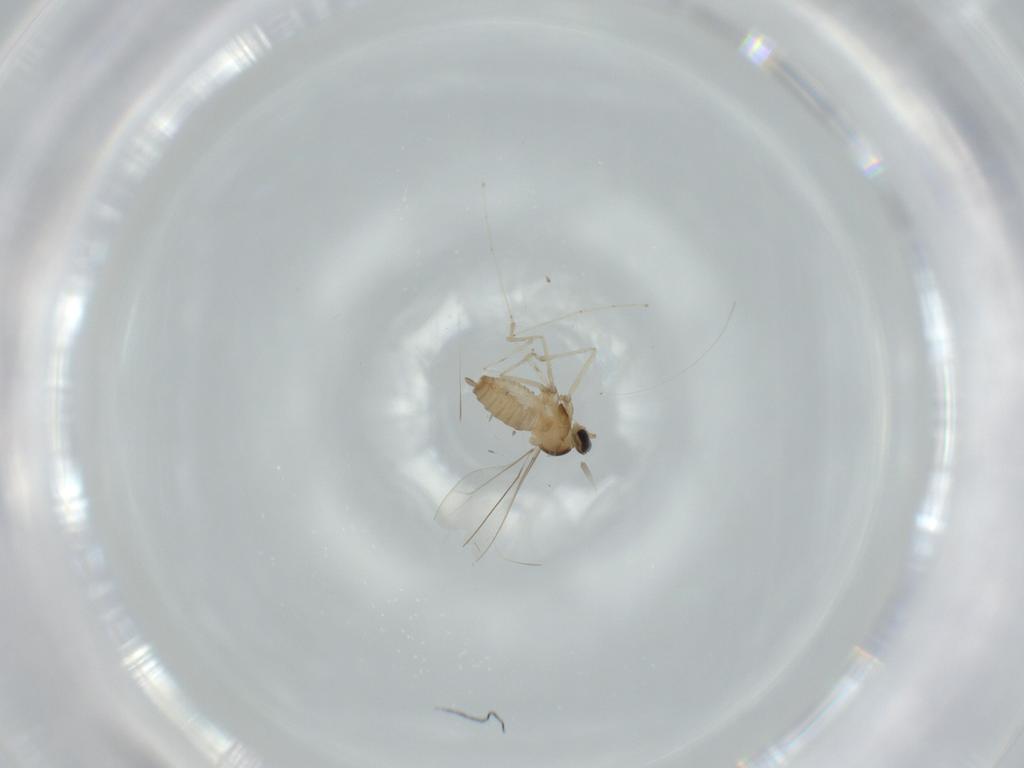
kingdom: Animalia
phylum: Arthropoda
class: Insecta
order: Diptera
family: Cecidomyiidae
